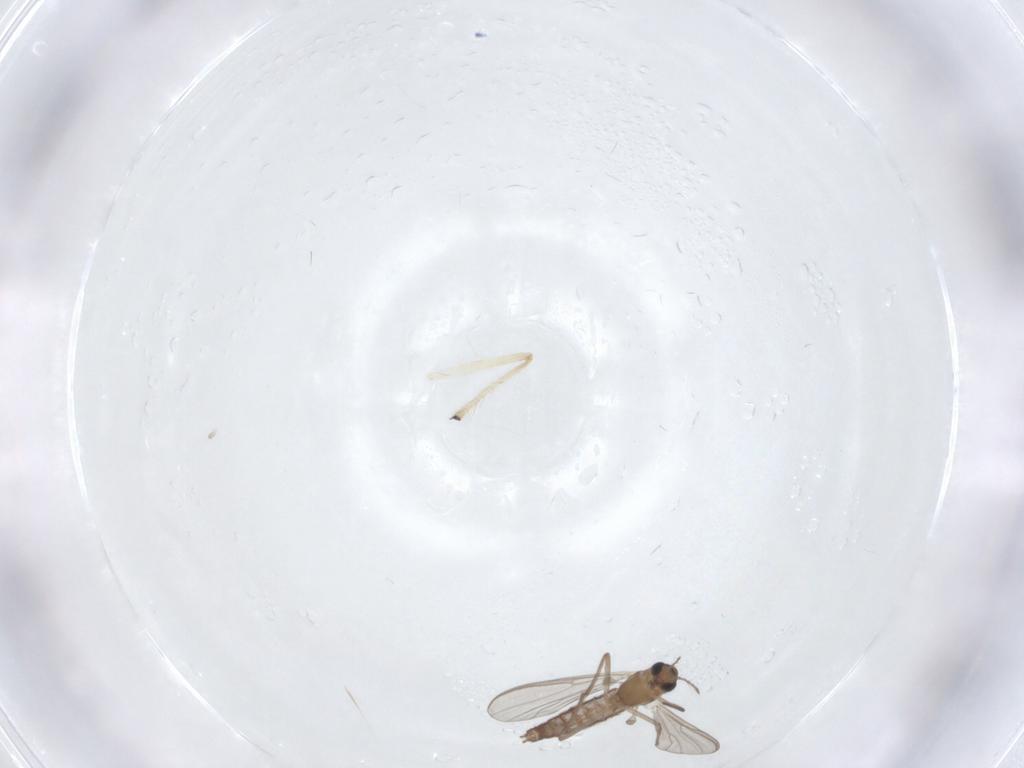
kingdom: Animalia
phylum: Arthropoda
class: Insecta
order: Diptera
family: Chironomidae
